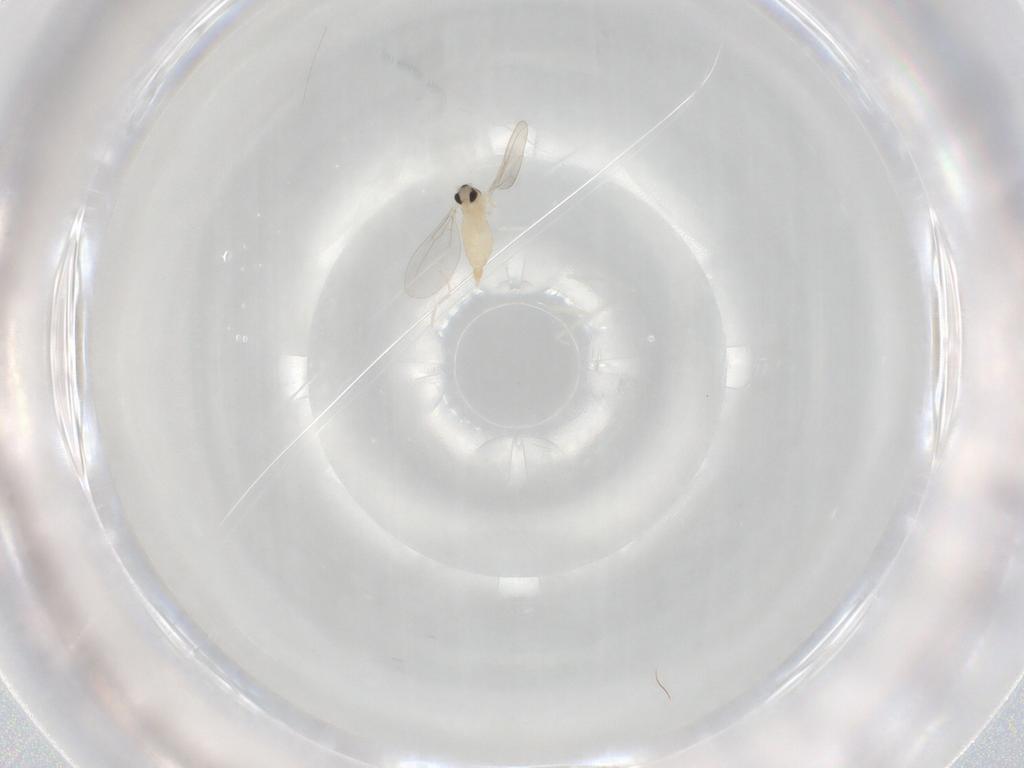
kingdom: Animalia
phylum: Arthropoda
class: Insecta
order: Diptera
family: Cecidomyiidae
